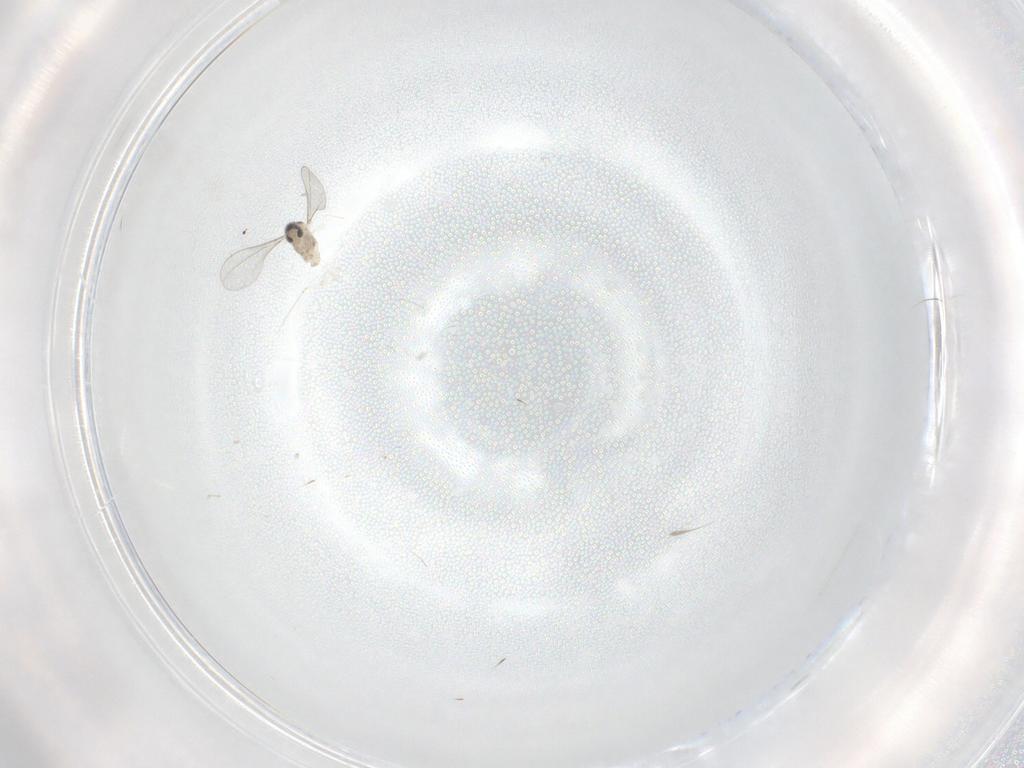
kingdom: Animalia
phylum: Arthropoda
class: Insecta
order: Diptera
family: Cecidomyiidae
